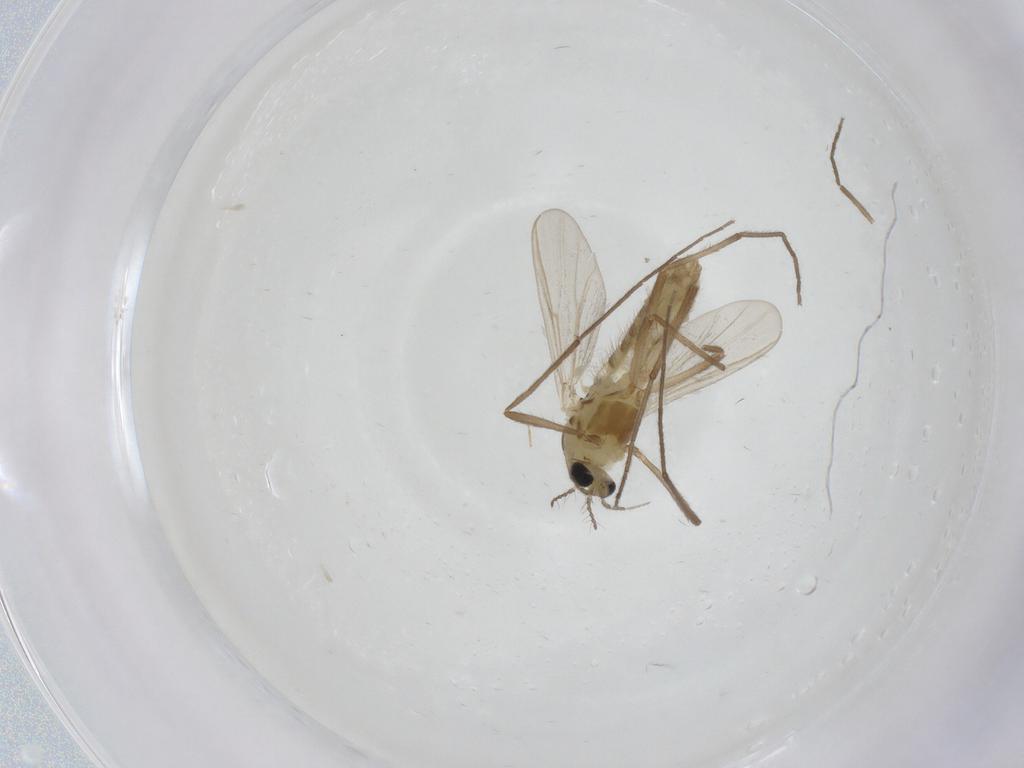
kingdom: Animalia
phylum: Arthropoda
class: Insecta
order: Diptera
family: Chironomidae
